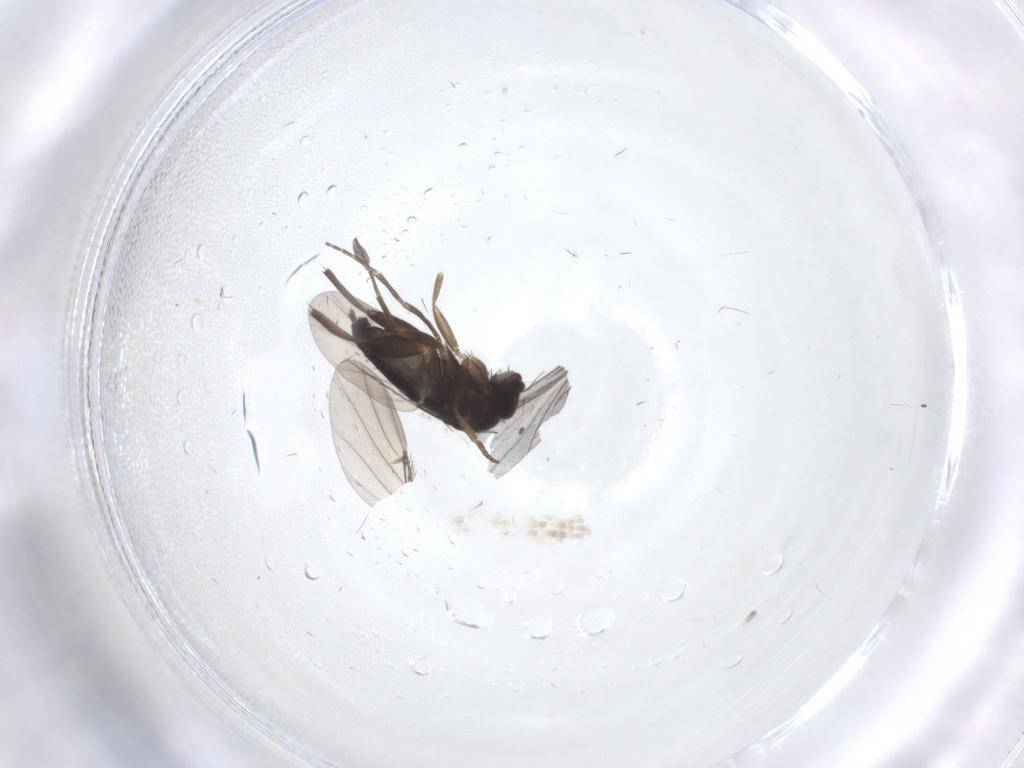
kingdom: Animalia
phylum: Arthropoda
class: Insecta
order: Diptera
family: Phoridae
